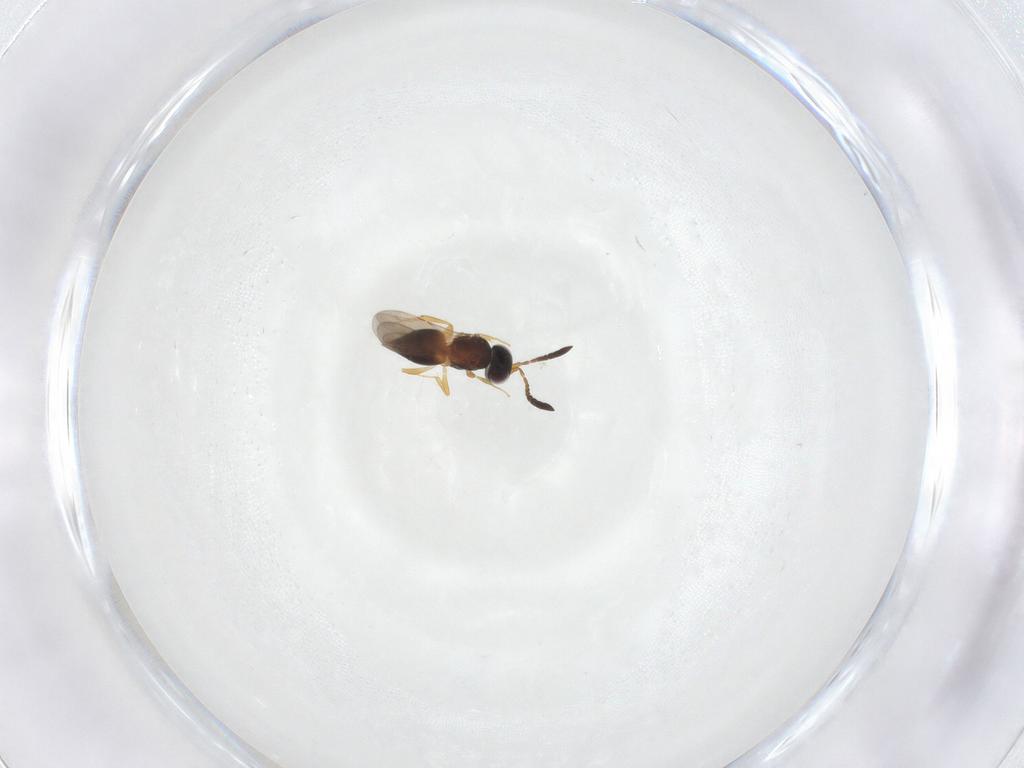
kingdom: Animalia
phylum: Arthropoda
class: Insecta
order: Hymenoptera
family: Ceraphronidae
